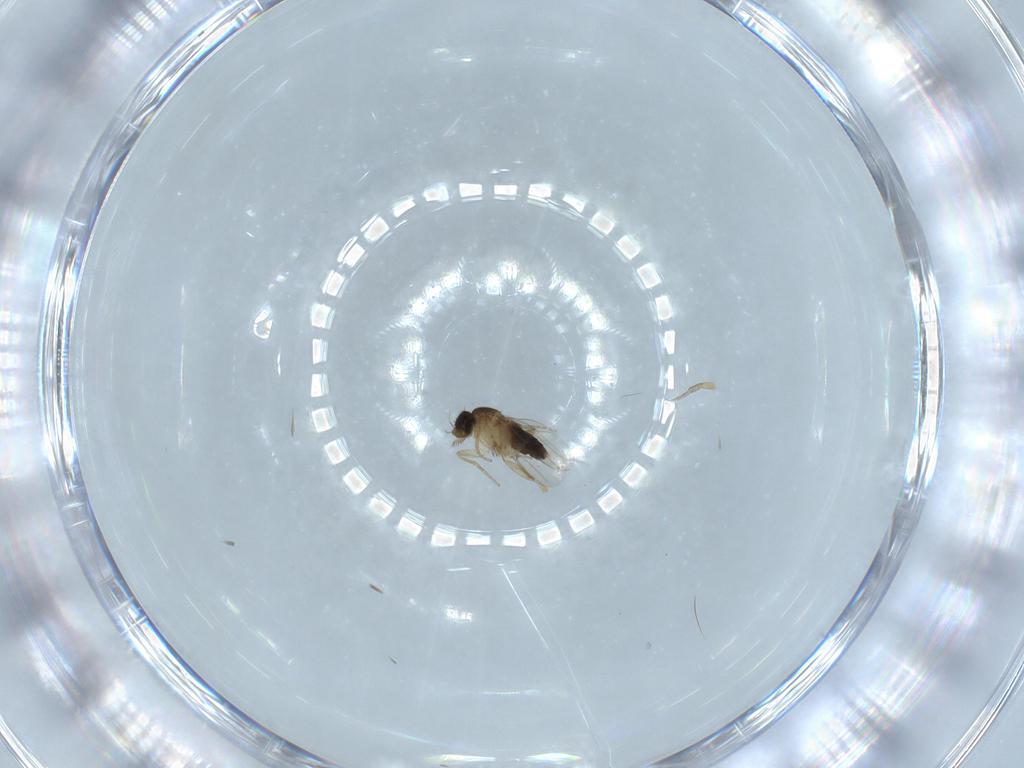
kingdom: Animalia
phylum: Arthropoda
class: Insecta
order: Diptera
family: Phoridae
